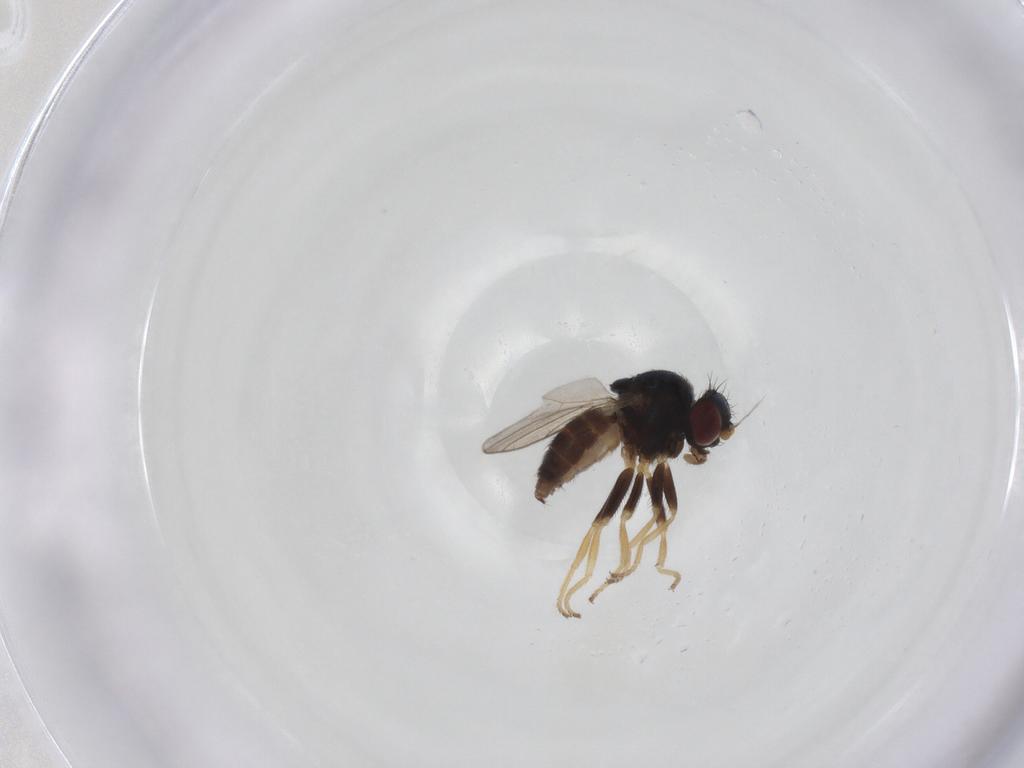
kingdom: Animalia
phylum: Arthropoda
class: Insecta
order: Diptera
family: Chloropidae
